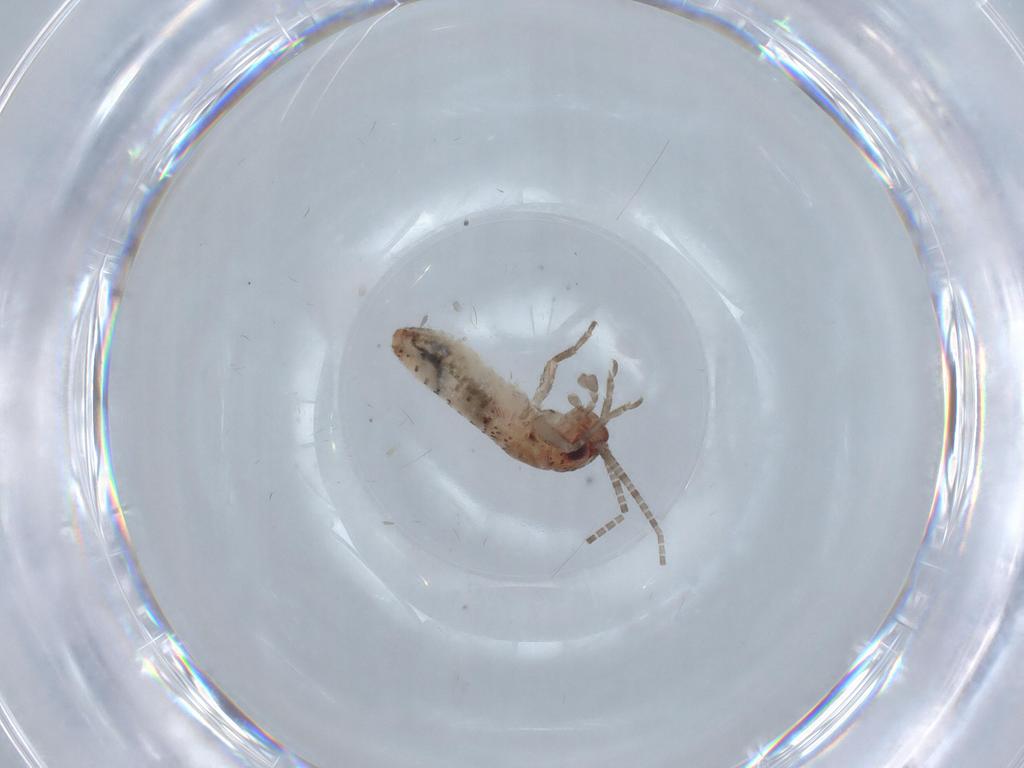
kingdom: Animalia
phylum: Arthropoda
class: Insecta
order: Orthoptera
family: Mogoplistidae
